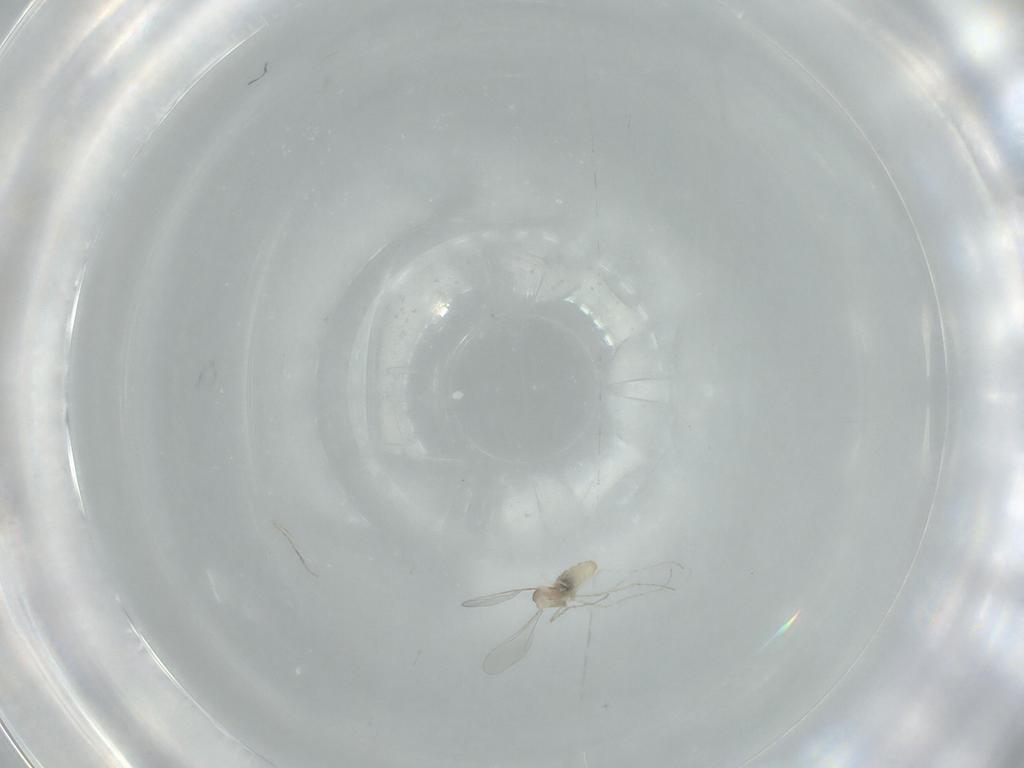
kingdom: Animalia
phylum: Arthropoda
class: Insecta
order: Diptera
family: Cecidomyiidae
